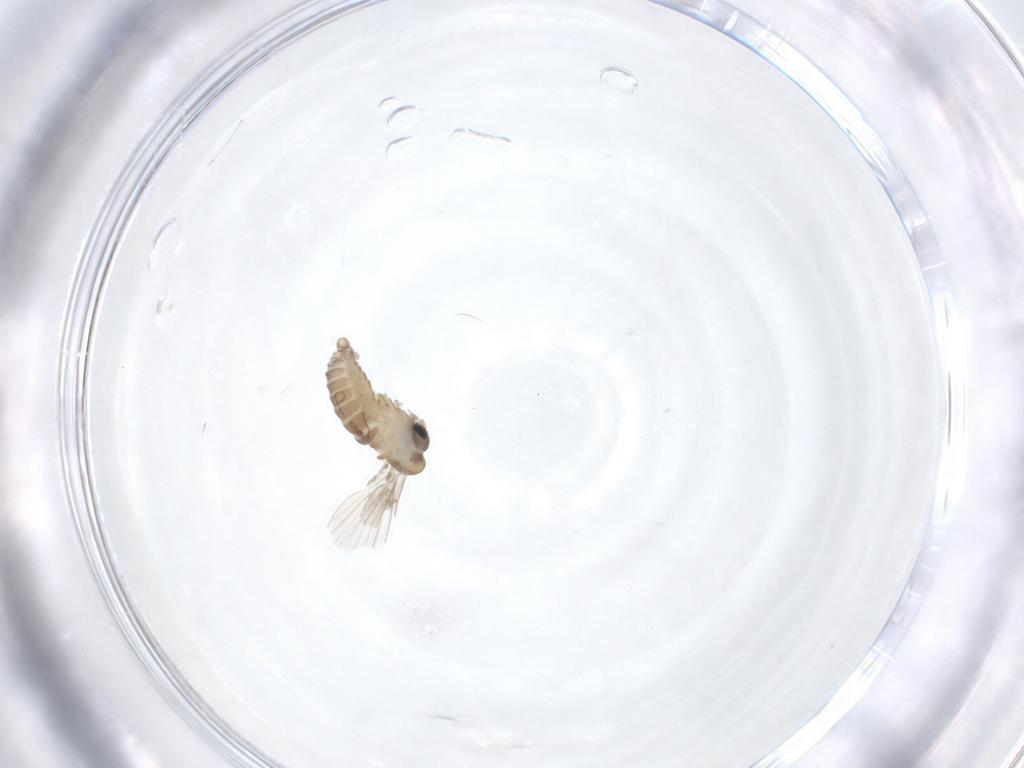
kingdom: Animalia
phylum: Arthropoda
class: Insecta
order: Diptera
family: Psychodidae
